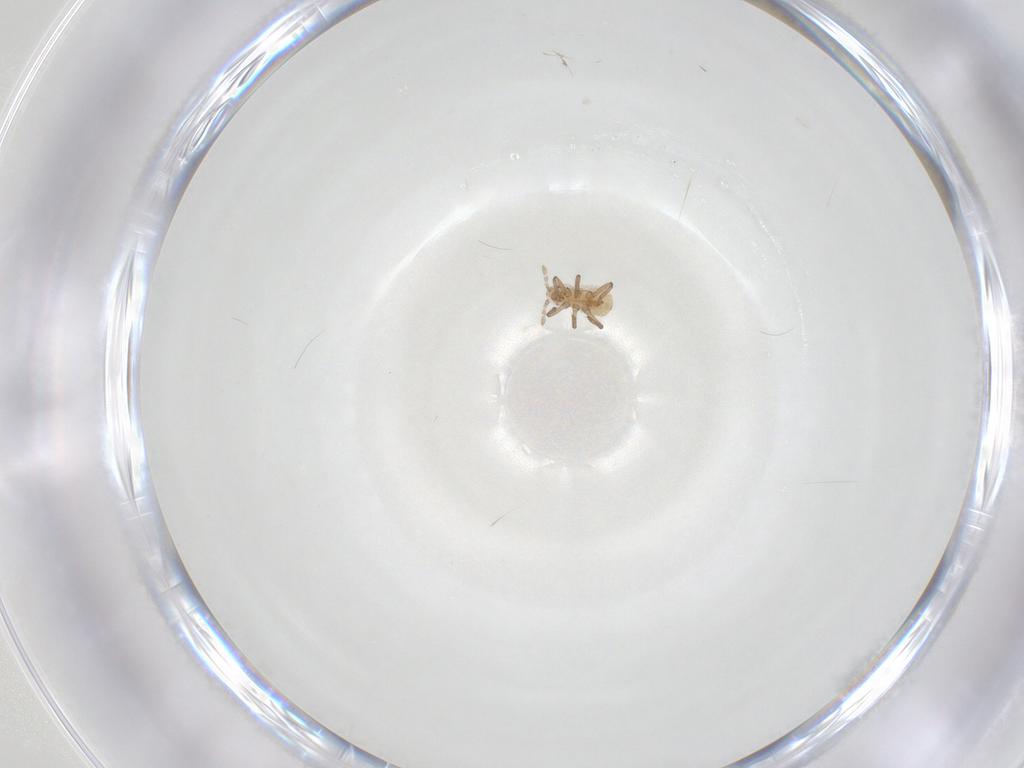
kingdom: Animalia
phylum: Arthropoda
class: Insecta
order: Hemiptera
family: Aphididae
